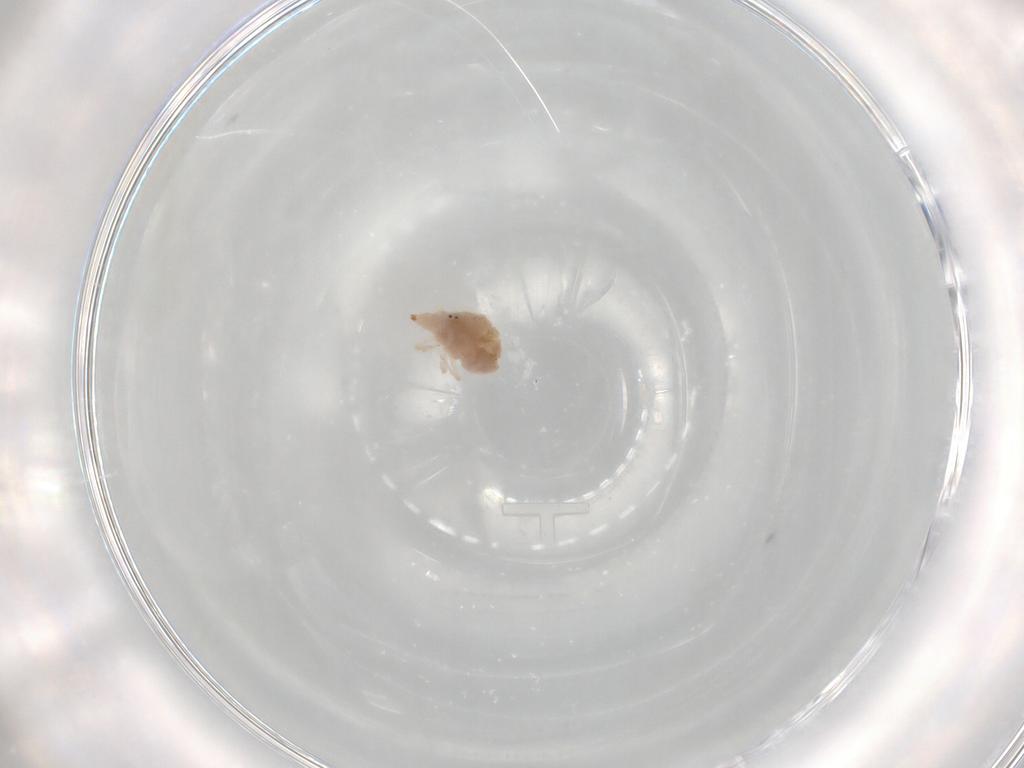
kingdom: Animalia
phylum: Arthropoda
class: Arachnida
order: Trombidiformes
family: Bdellidae
